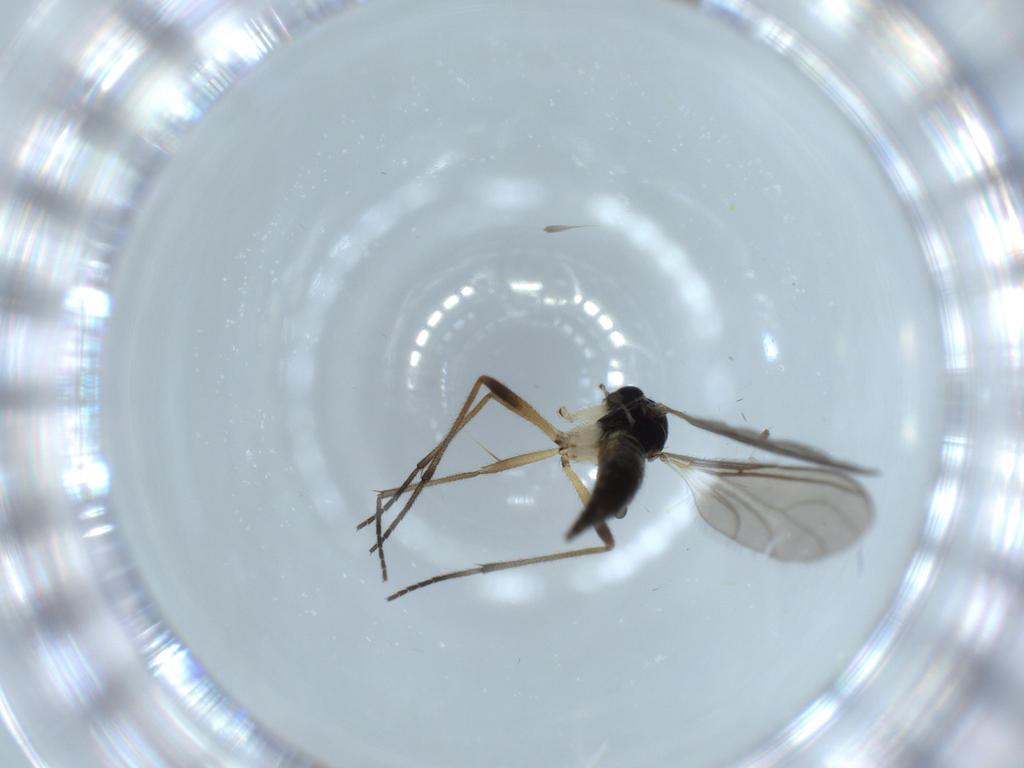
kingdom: Animalia
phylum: Arthropoda
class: Insecta
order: Diptera
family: Sciaridae
